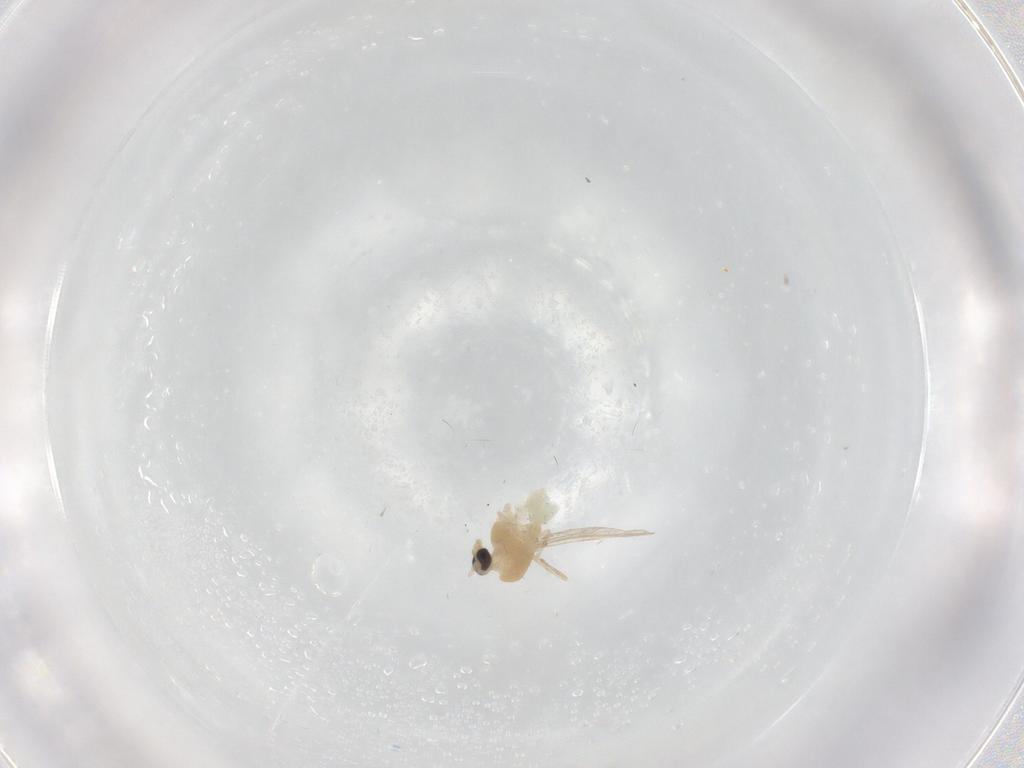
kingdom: Animalia
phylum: Arthropoda
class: Insecta
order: Diptera
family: Chironomidae
